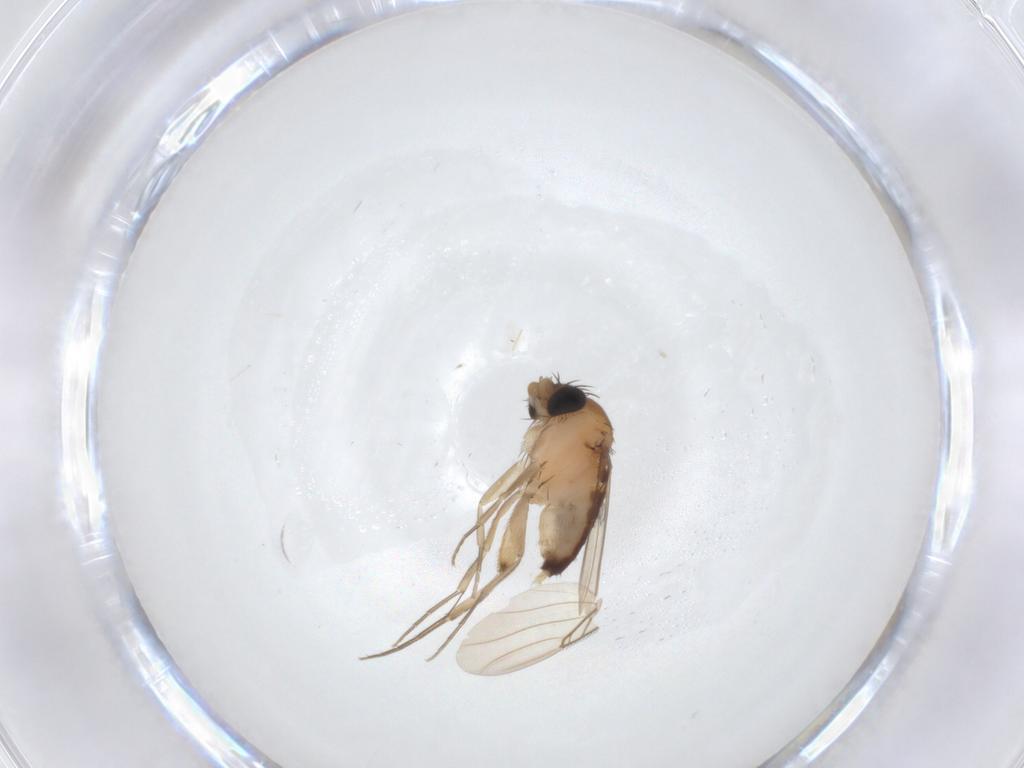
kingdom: Animalia
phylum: Arthropoda
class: Insecta
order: Diptera
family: Phoridae
